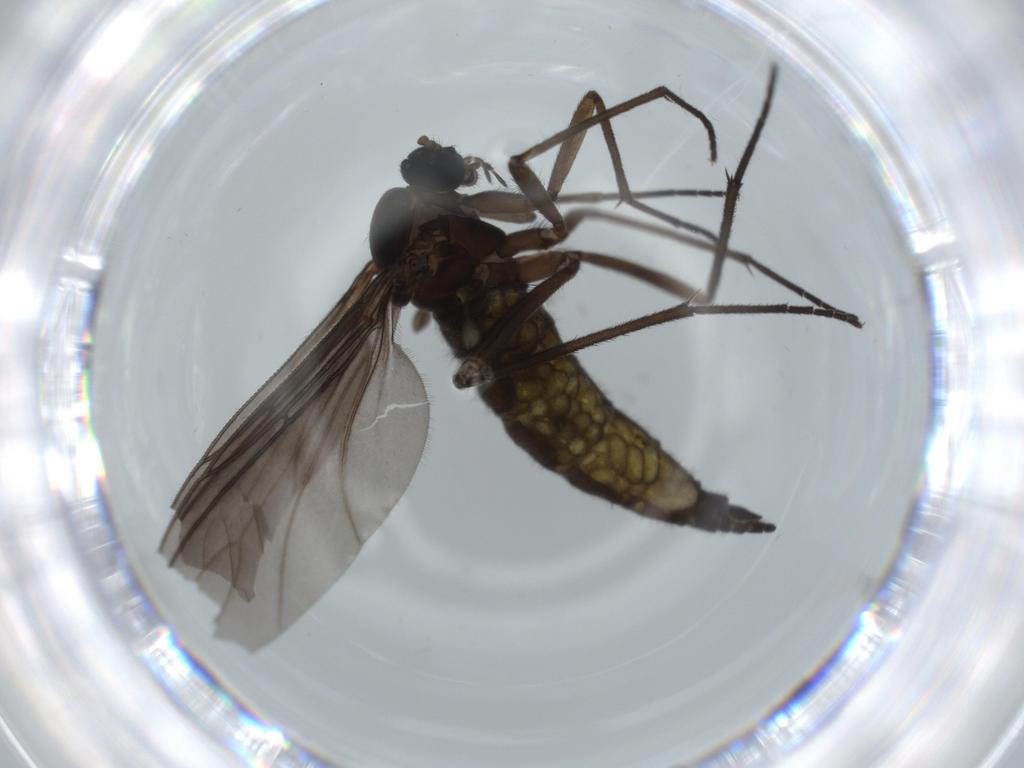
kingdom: Animalia
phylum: Arthropoda
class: Insecta
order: Diptera
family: Sciaridae
